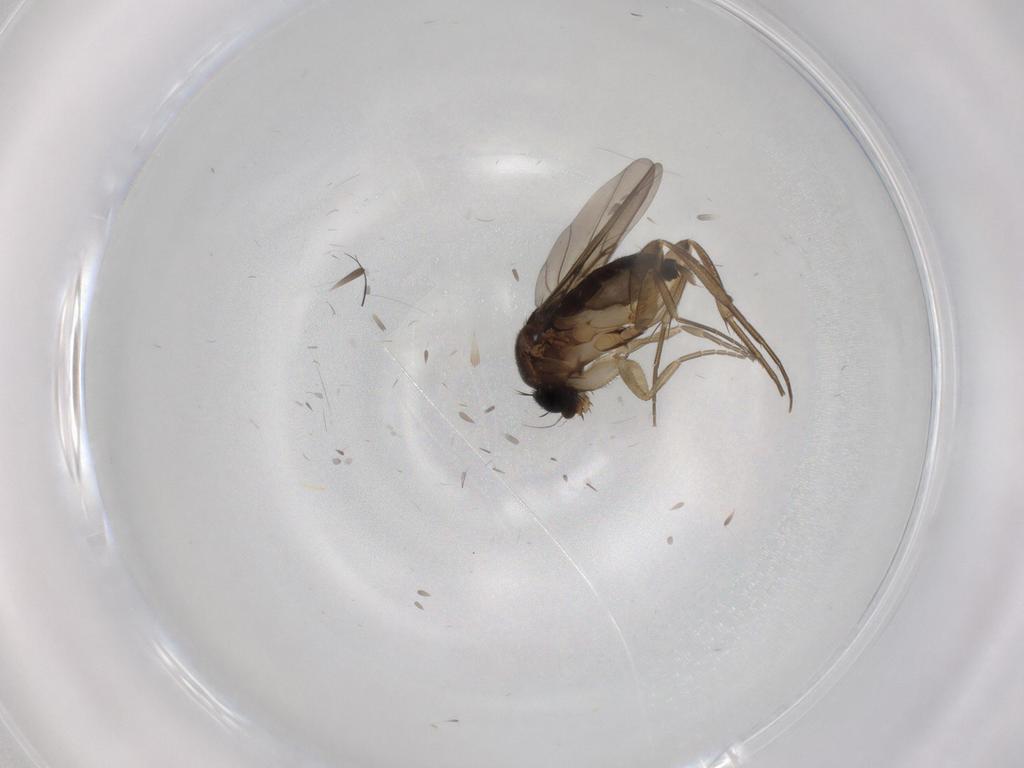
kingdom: Animalia
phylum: Arthropoda
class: Insecta
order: Diptera
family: Phoridae
